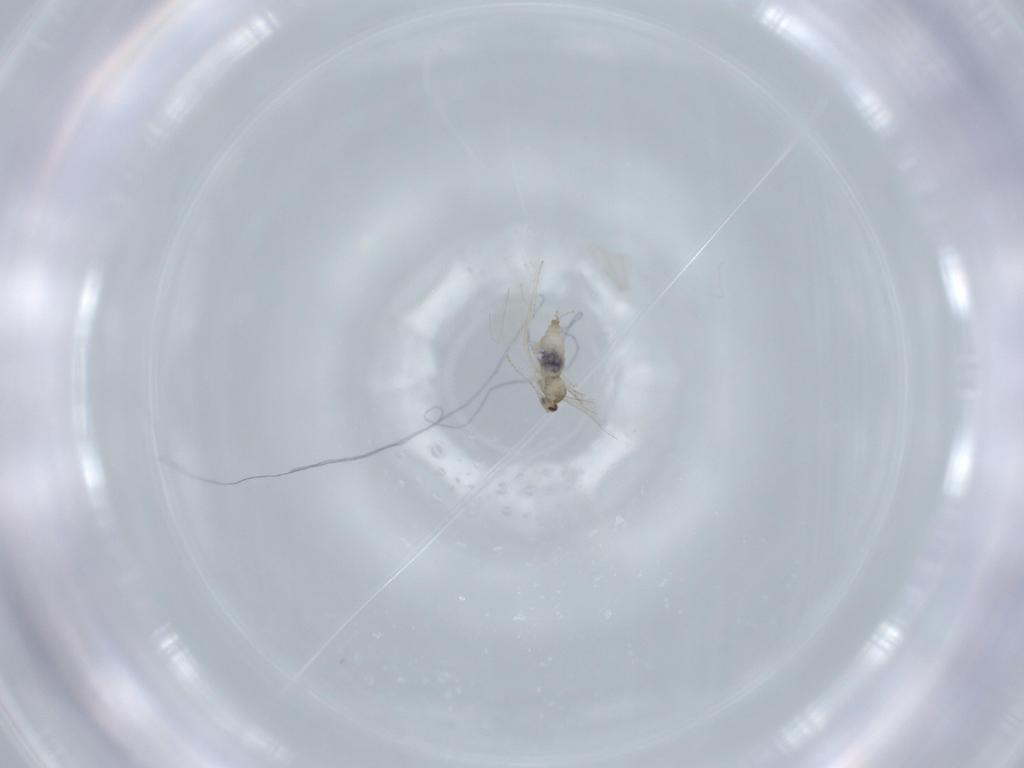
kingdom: Animalia
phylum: Arthropoda
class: Insecta
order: Diptera
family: Cecidomyiidae
